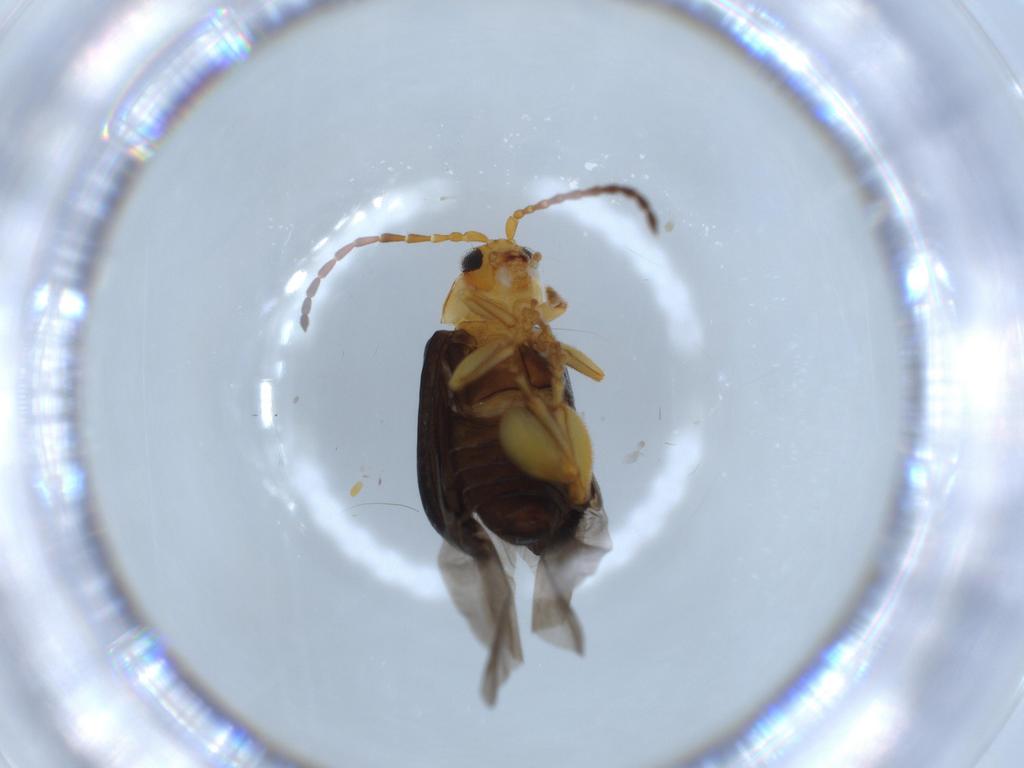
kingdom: Animalia
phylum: Arthropoda
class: Insecta
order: Coleoptera
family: Chrysomelidae
